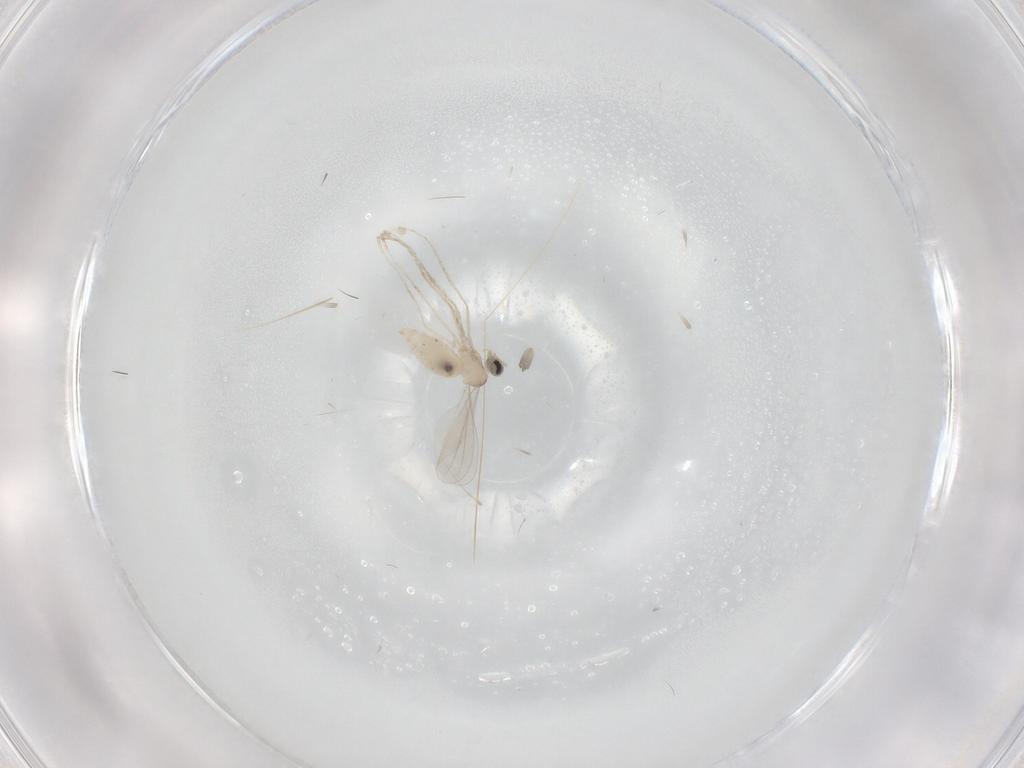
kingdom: Animalia
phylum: Arthropoda
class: Insecta
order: Diptera
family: Cecidomyiidae
